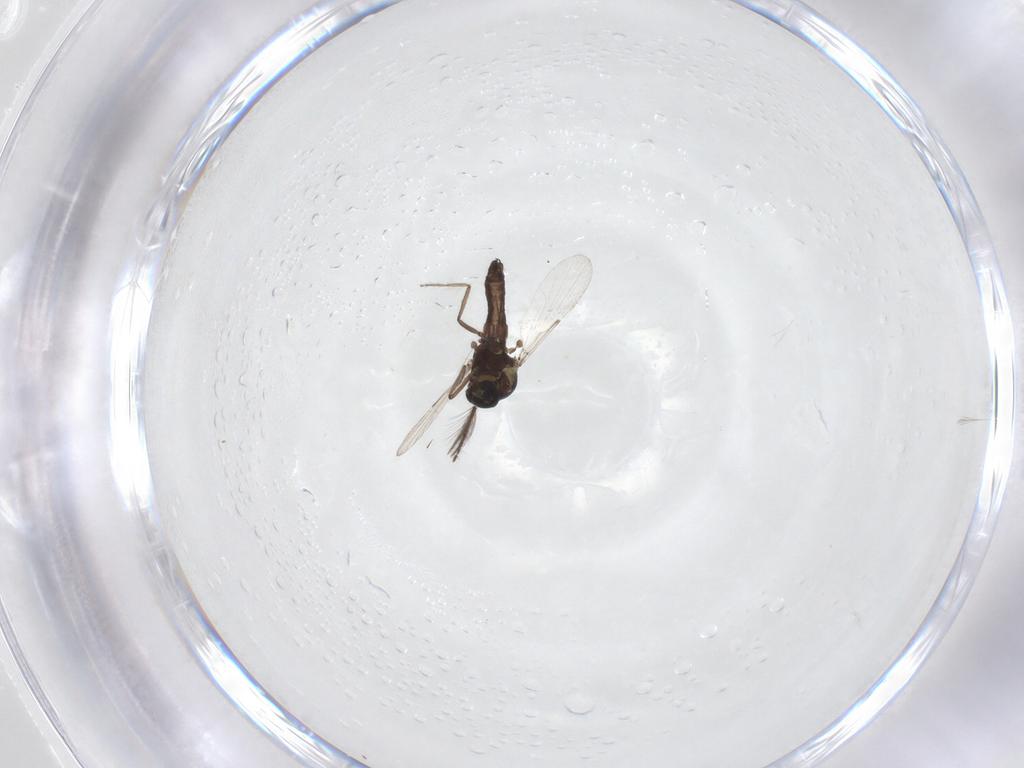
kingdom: Animalia
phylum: Arthropoda
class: Insecta
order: Diptera
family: Ceratopogonidae
